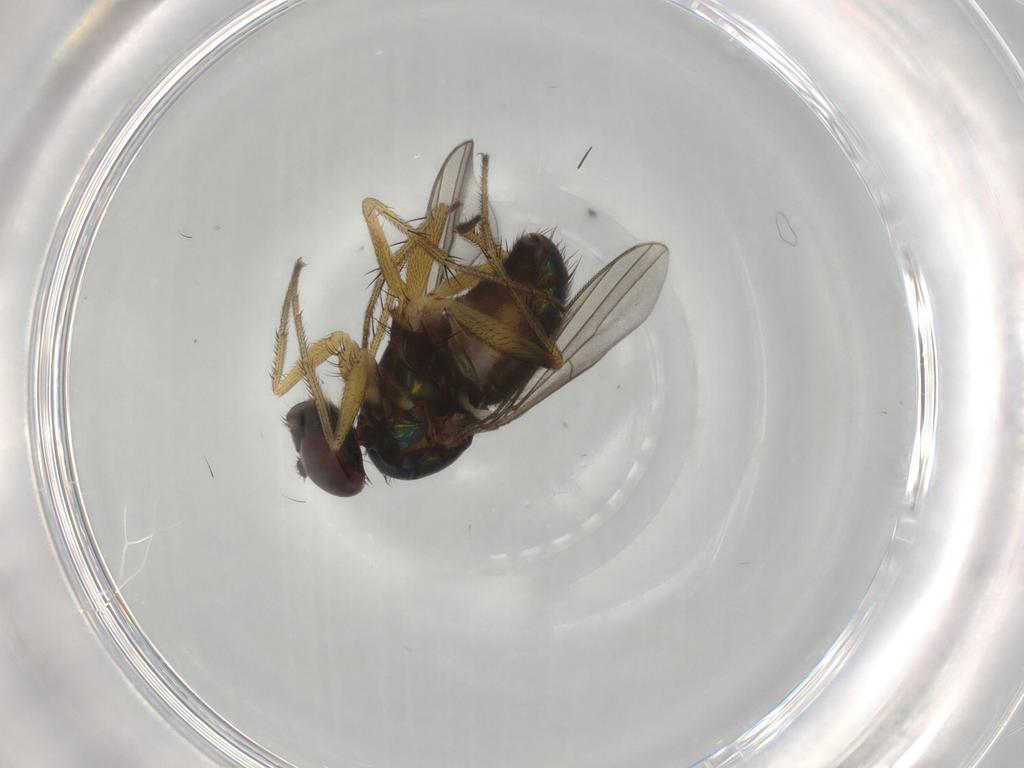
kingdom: Animalia
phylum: Arthropoda
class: Insecta
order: Diptera
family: Dolichopodidae
